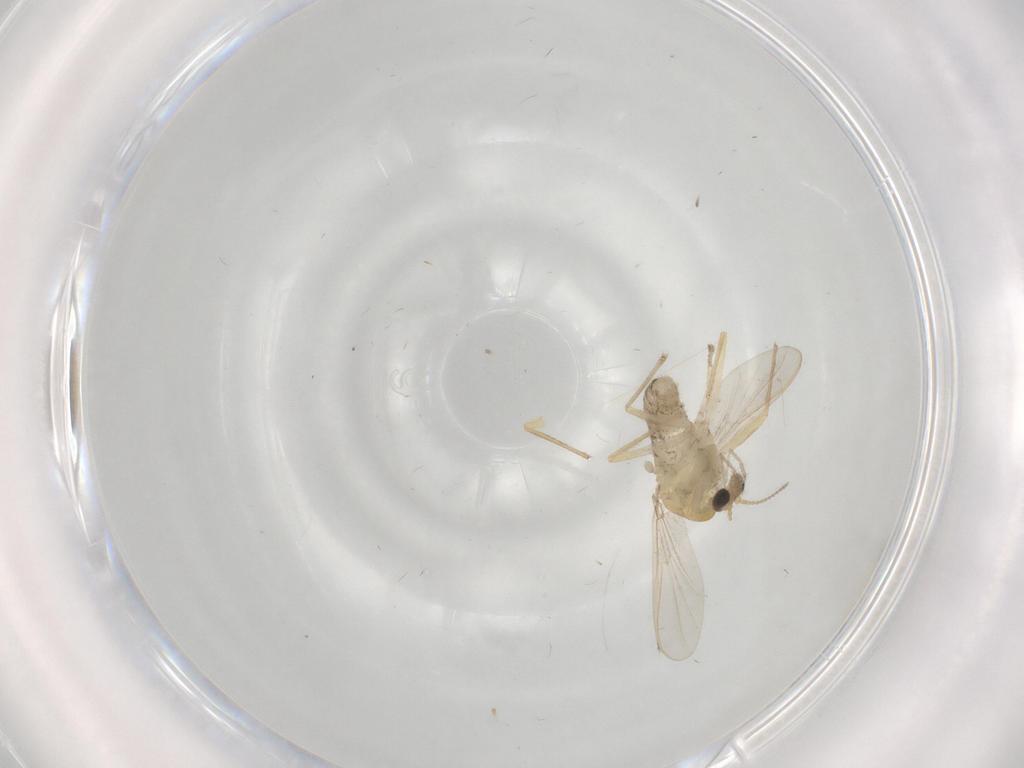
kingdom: Animalia
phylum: Arthropoda
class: Insecta
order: Diptera
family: Chironomidae
